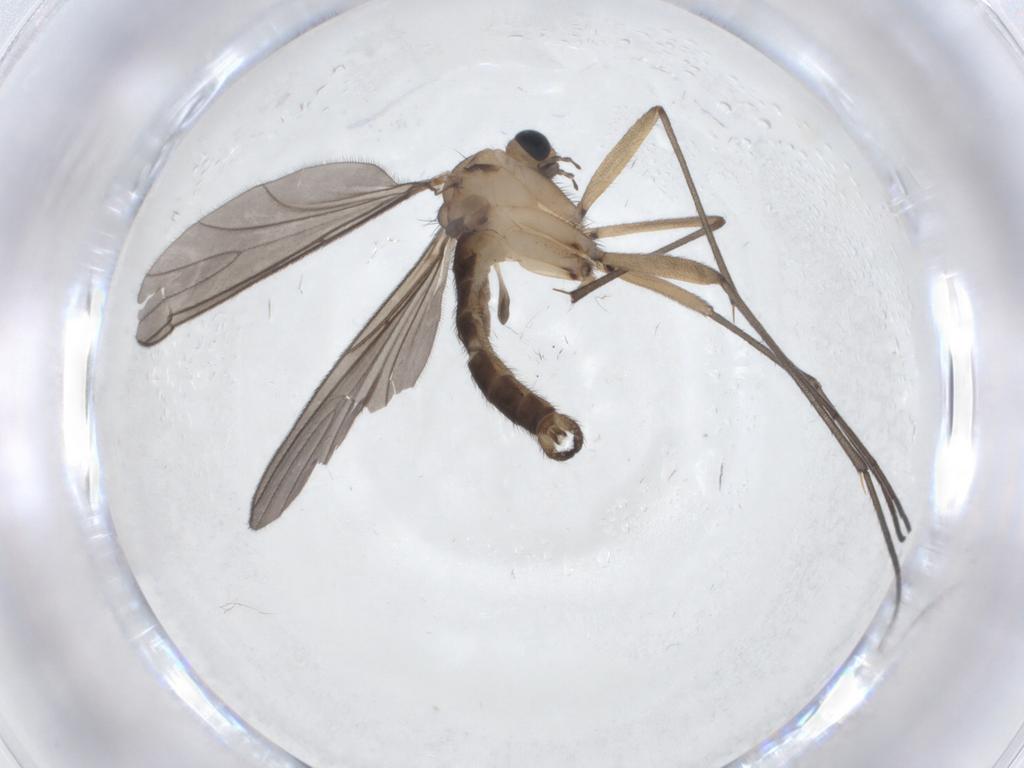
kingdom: Animalia
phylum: Arthropoda
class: Insecta
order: Diptera
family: Sciaridae
